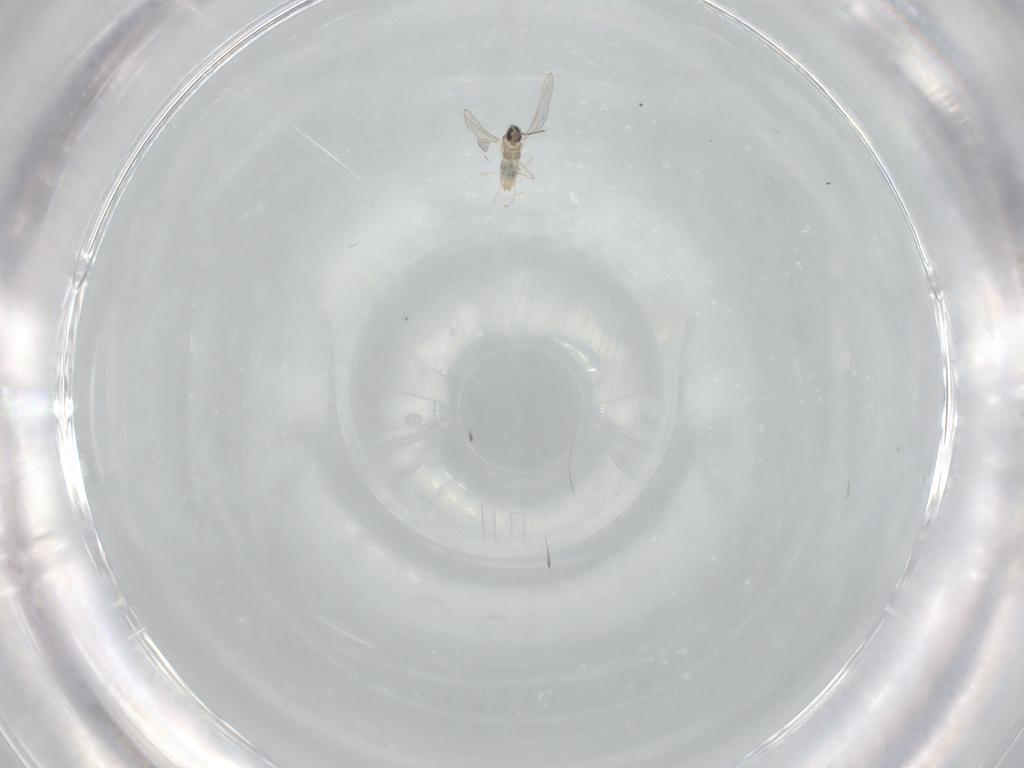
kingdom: Animalia
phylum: Arthropoda
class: Insecta
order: Diptera
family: Cecidomyiidae
